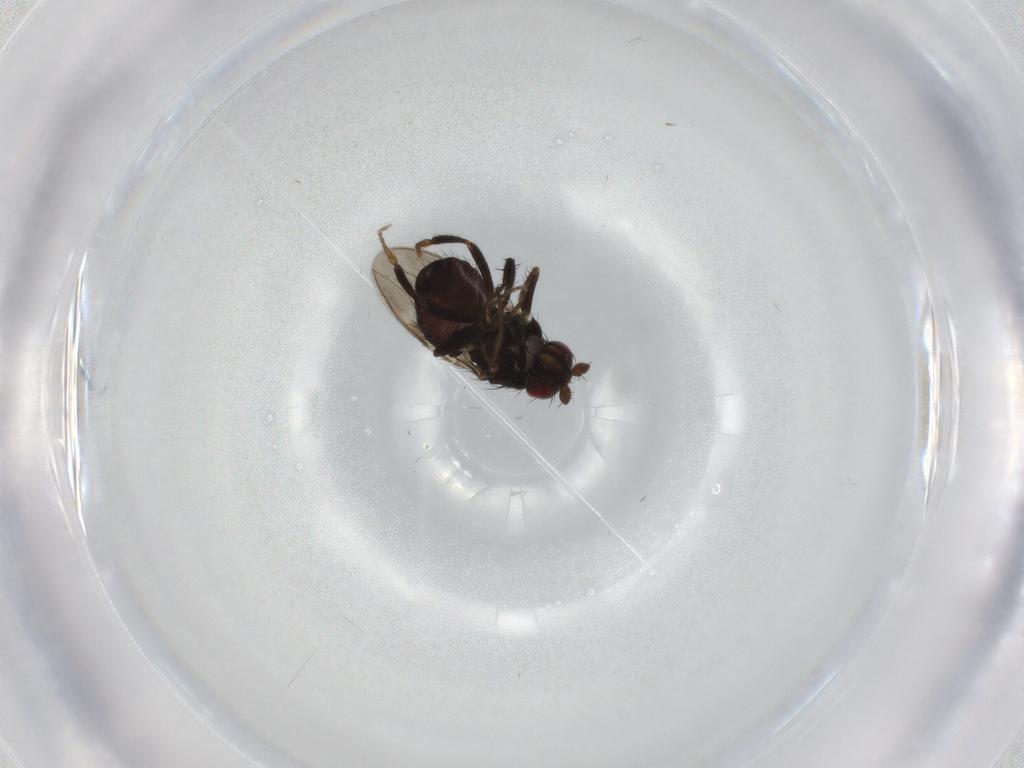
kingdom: Animalia
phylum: Arthropoda
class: Insecta
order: Diptera
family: Sphaeroceridae
